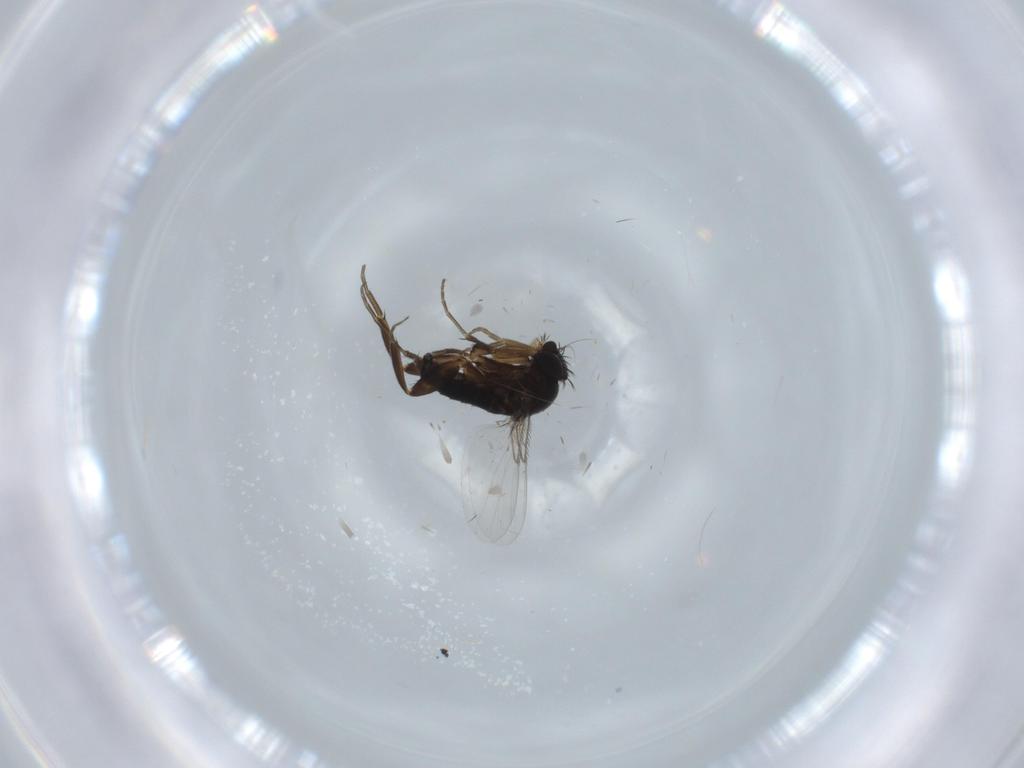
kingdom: Animalia
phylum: Arthropoda
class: Insecta
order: Diptera
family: Phoridae
